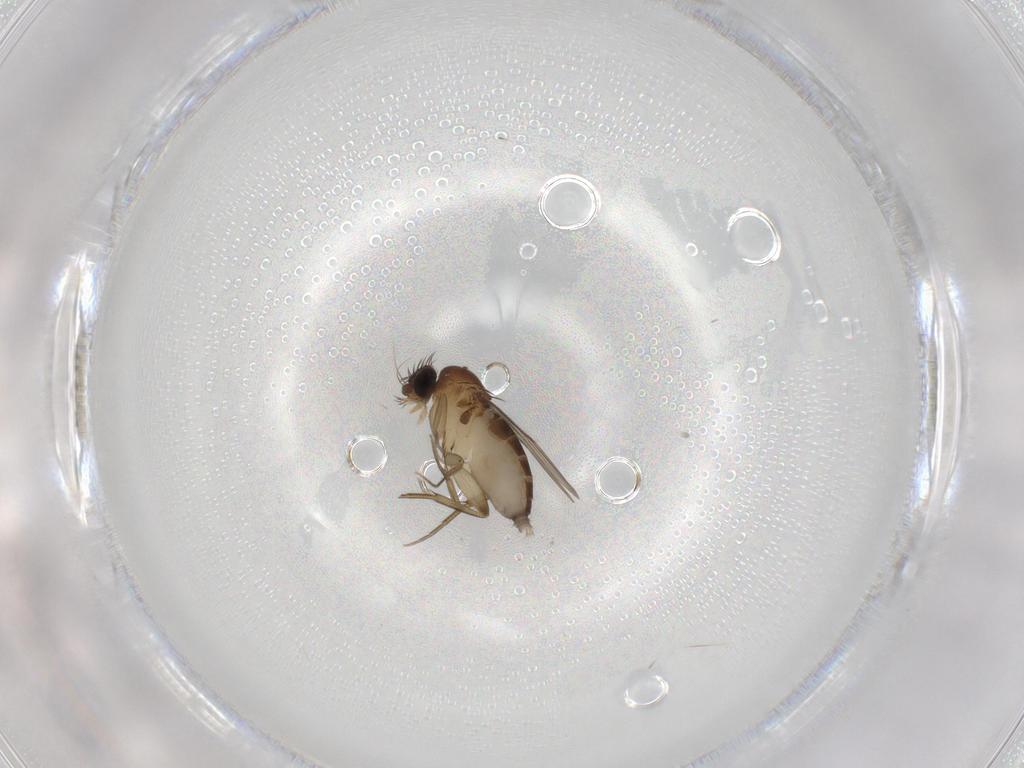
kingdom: Animalia
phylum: Arthropoda
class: Insecta
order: Diptera
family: Phoridae
